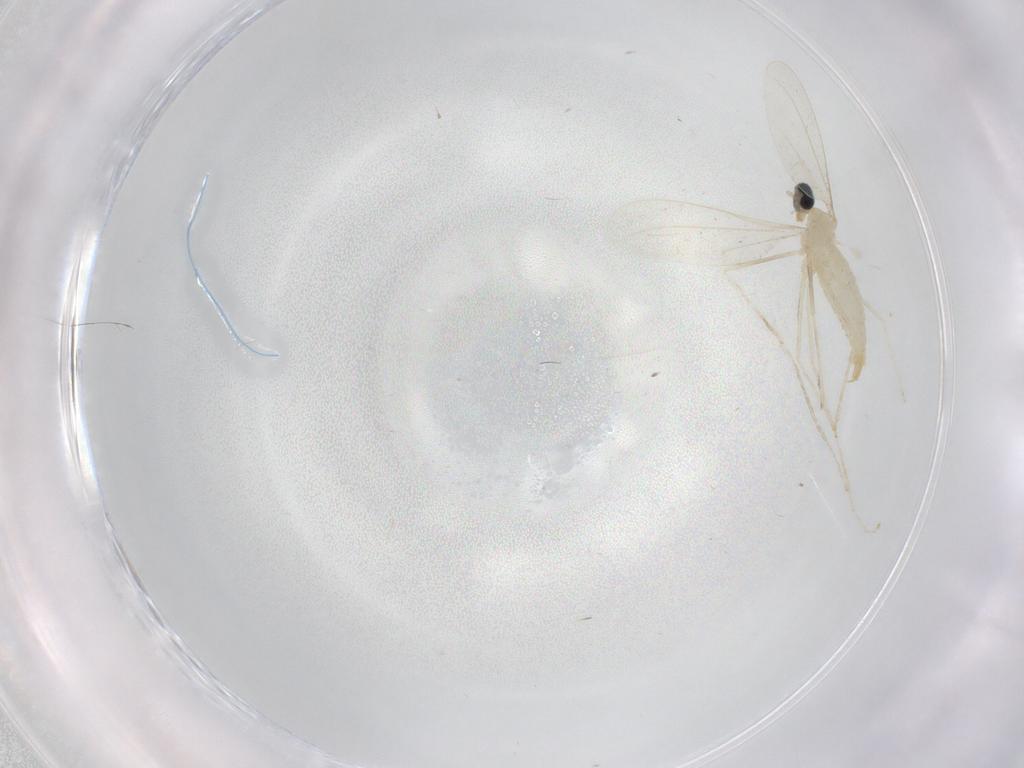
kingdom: Animalia
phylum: Arthropoda
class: Insecta
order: Diptera
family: Cecidomyiidae
